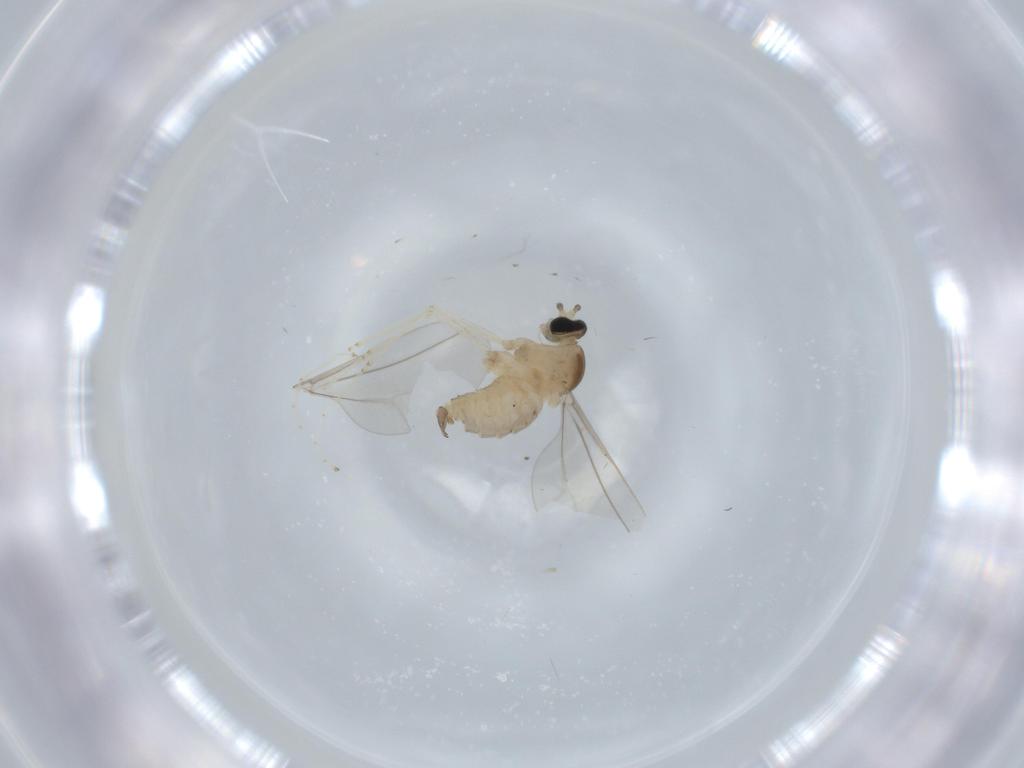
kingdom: Animalia
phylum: Arthropoda
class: Insecta
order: Diptera
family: Cecidomyiidae
